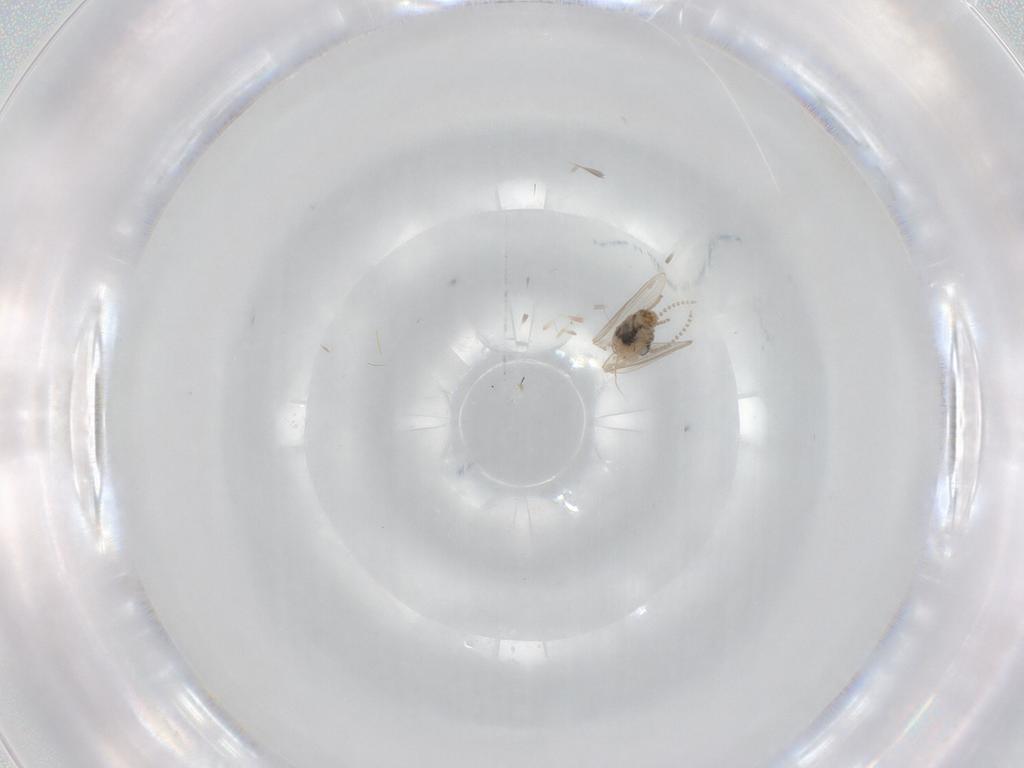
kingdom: Animalia
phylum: Arthropoda
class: Insecta
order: Diptera
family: Psychodidae
